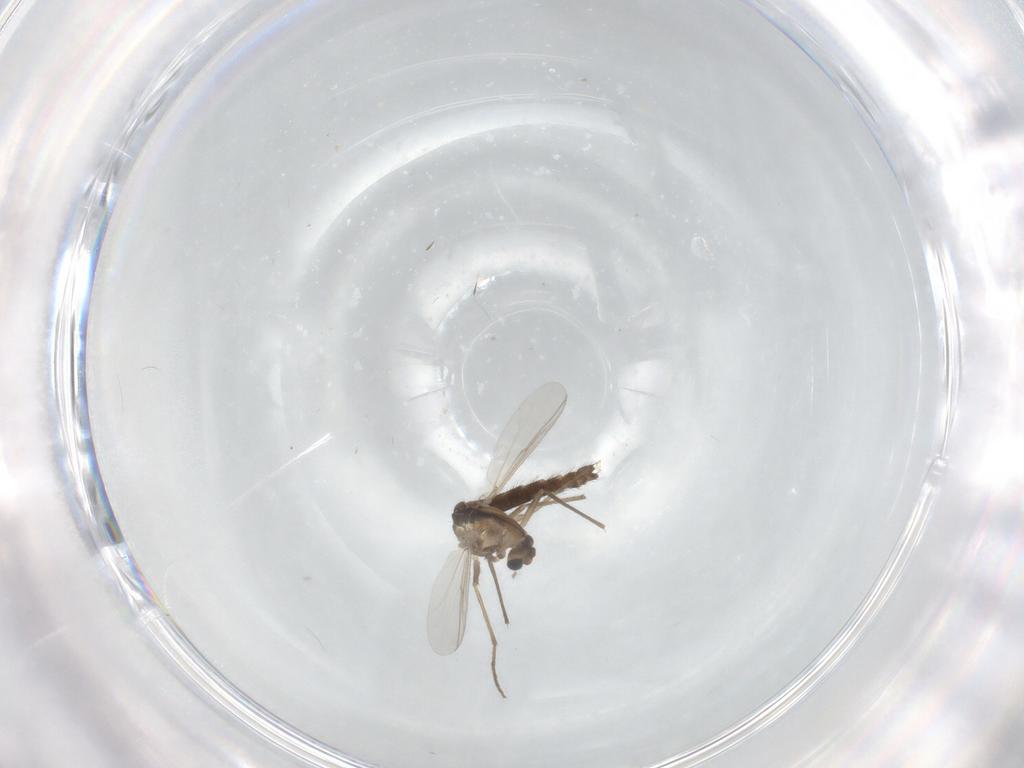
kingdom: Animalia
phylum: Arthropoda
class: Insecta
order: Diptera
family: Chironomidae
